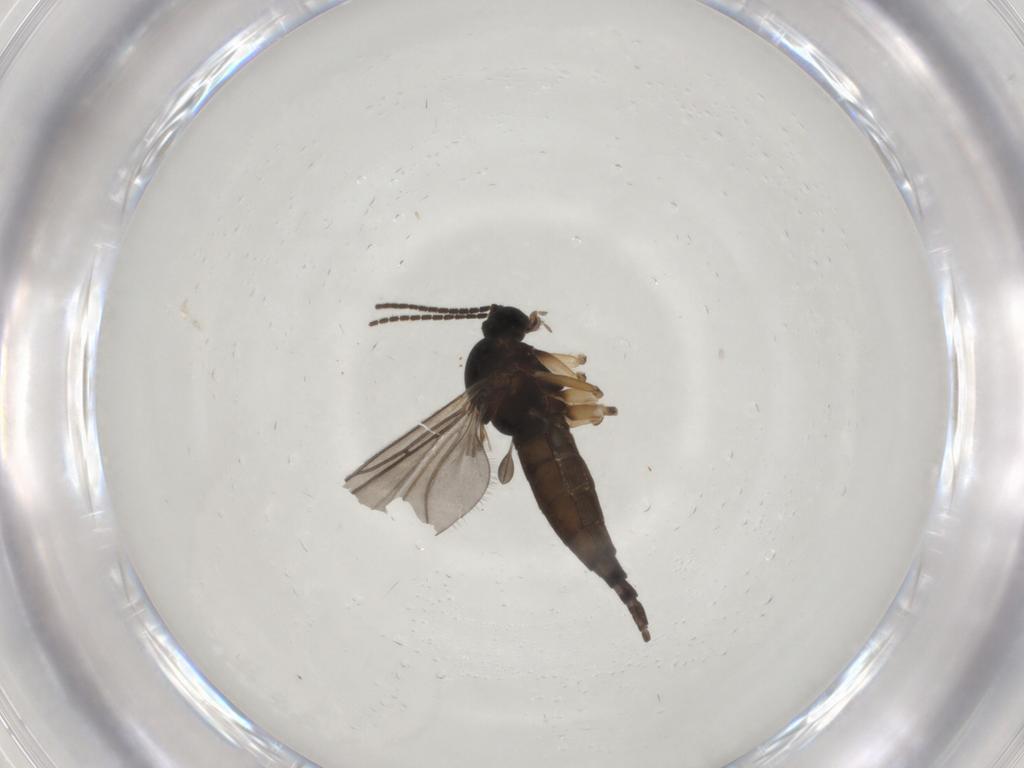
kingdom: Animalia
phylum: Arthropoda
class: Insecta
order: Diptera
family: Sciaridae
